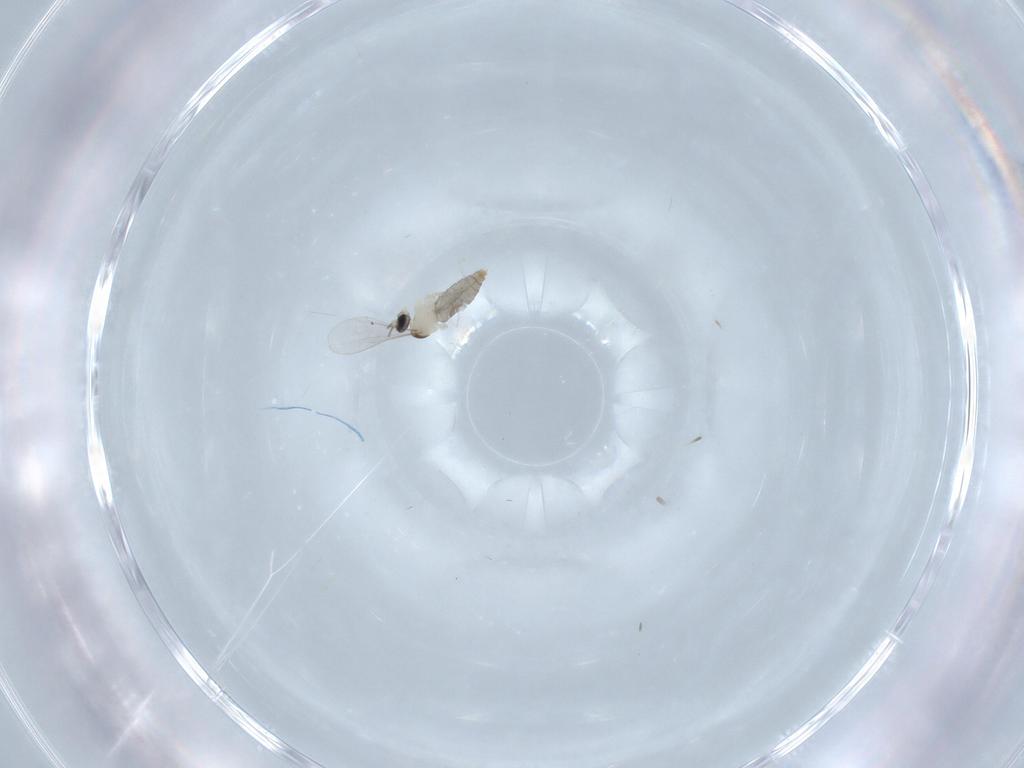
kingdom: Animalia
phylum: Arthropoda
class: Insecta
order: Diptera
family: Cecidomyiidae
